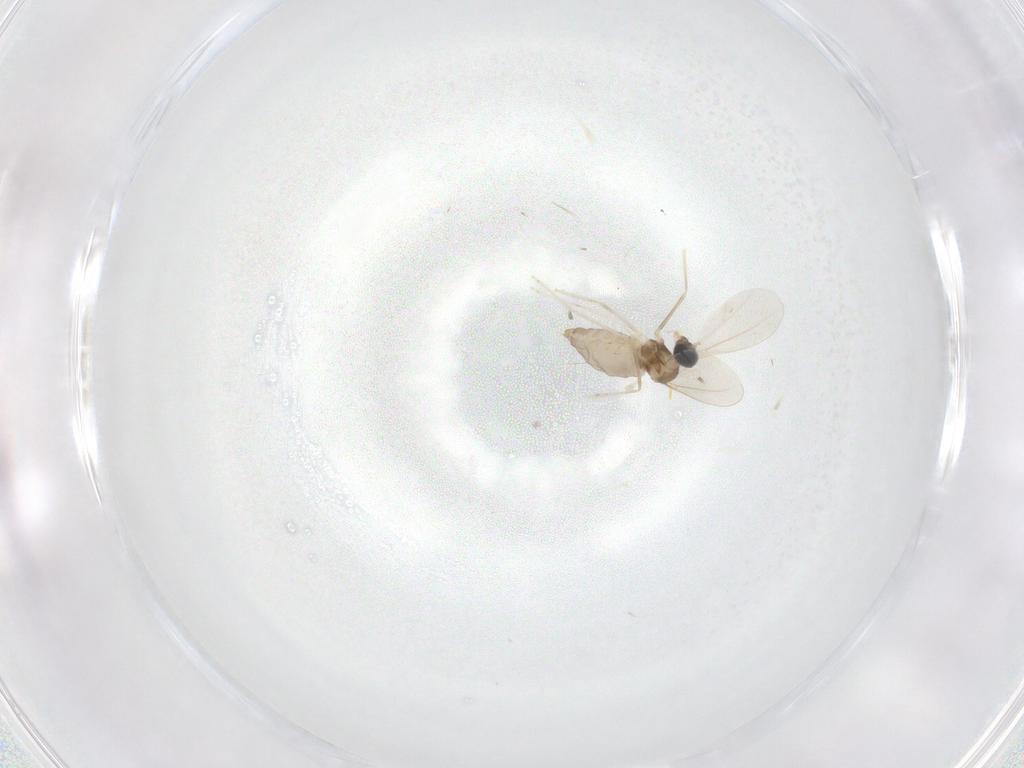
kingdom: Animalia
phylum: Arthropoda
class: Insecta
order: Diptera
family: Cecidomyiidae
